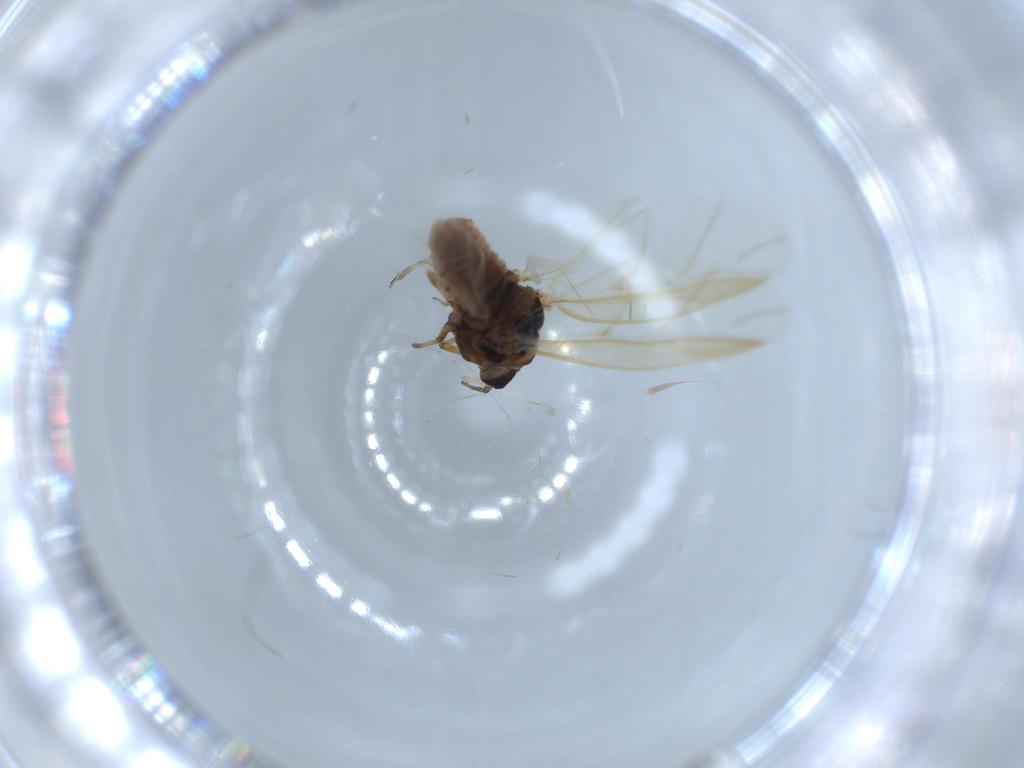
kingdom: Animalia
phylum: Arthropoda
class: Insecta
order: Hemiptera
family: Adelgidae
